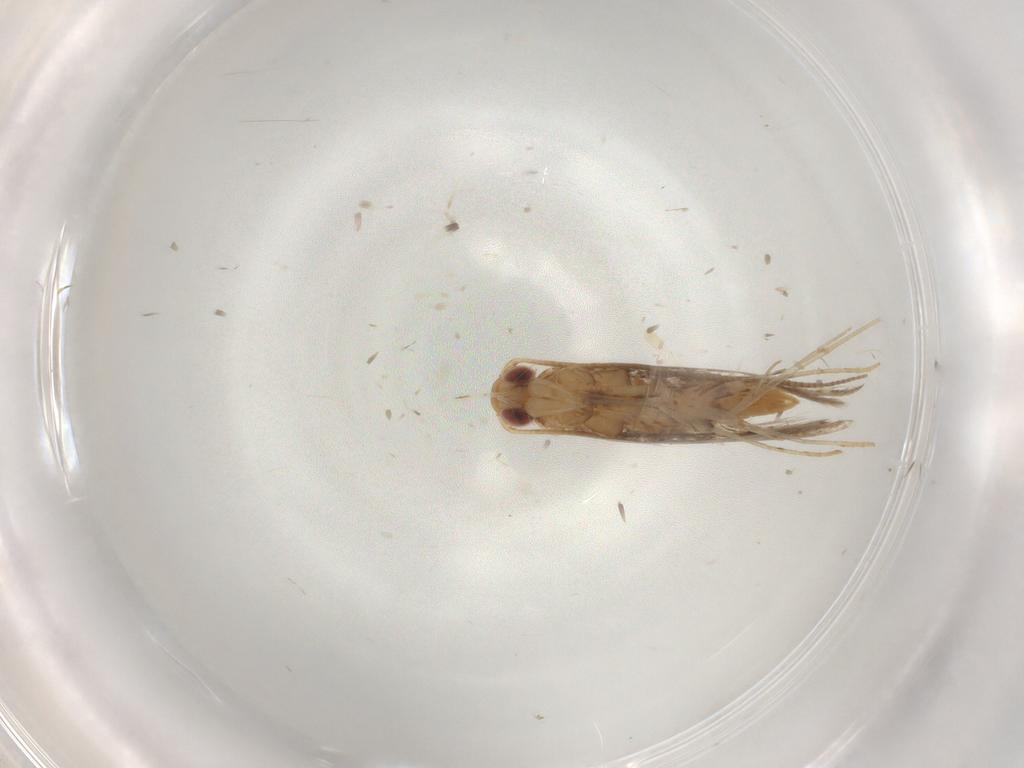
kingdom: Animalia
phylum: Arthropoda
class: Insecta
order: Lepidoptera
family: Gracillariidae
